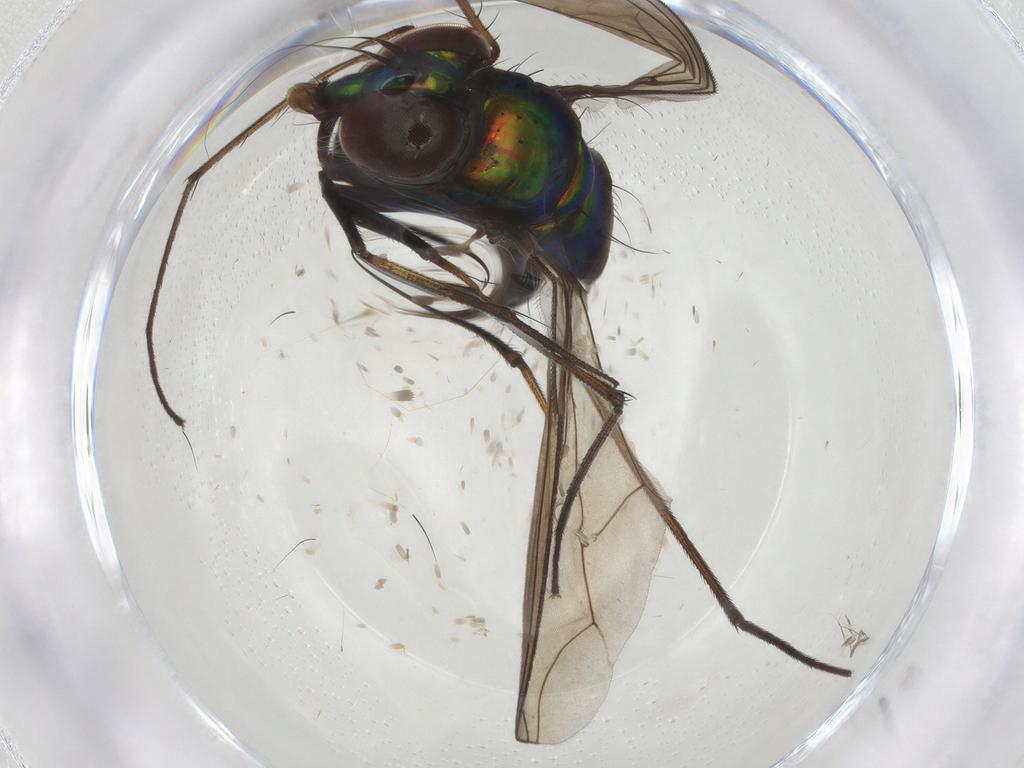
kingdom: Animalia
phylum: Arthropoda
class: Insecta
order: Diptera
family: Dolichopodidae
